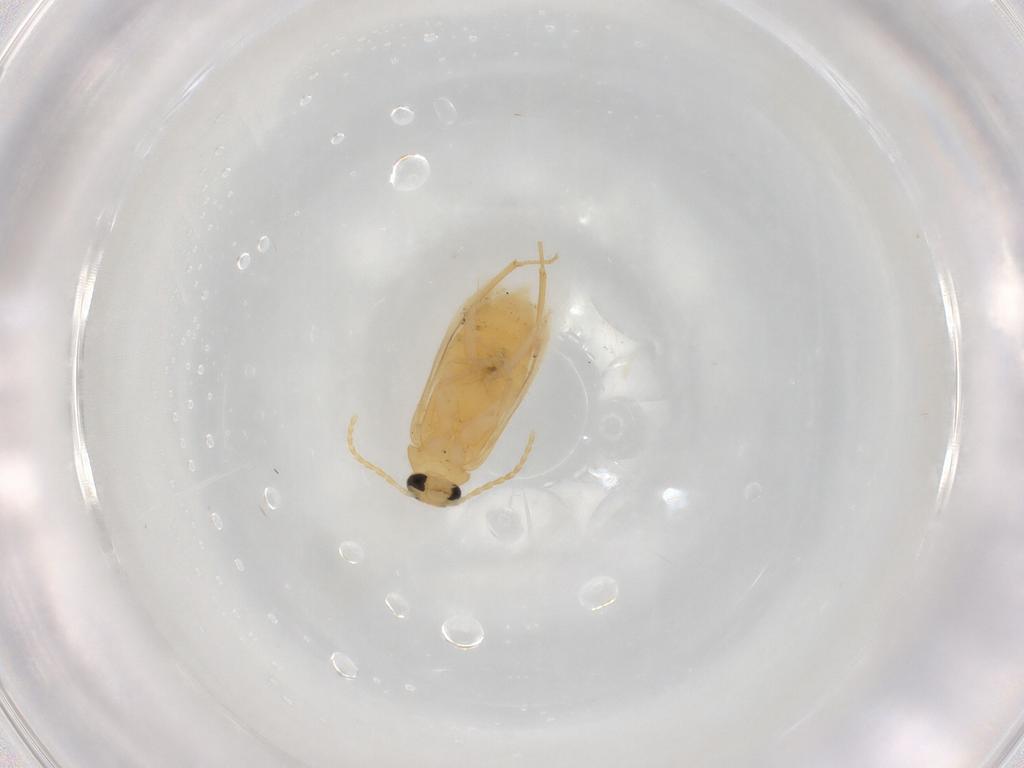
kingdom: Animalia
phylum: Arthropoda
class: Insecta
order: Coleoptera
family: Scraptiidae
